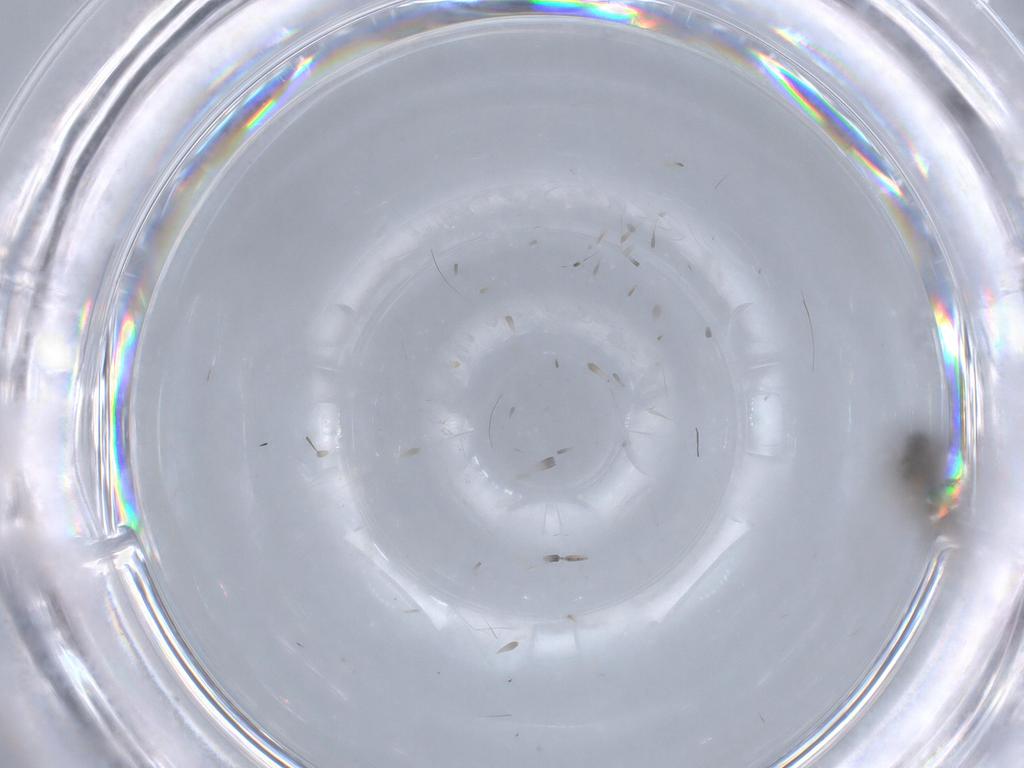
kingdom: Animalia
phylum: Arthropoda
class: Insecta
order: Diptera
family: Ceratopogonidae
